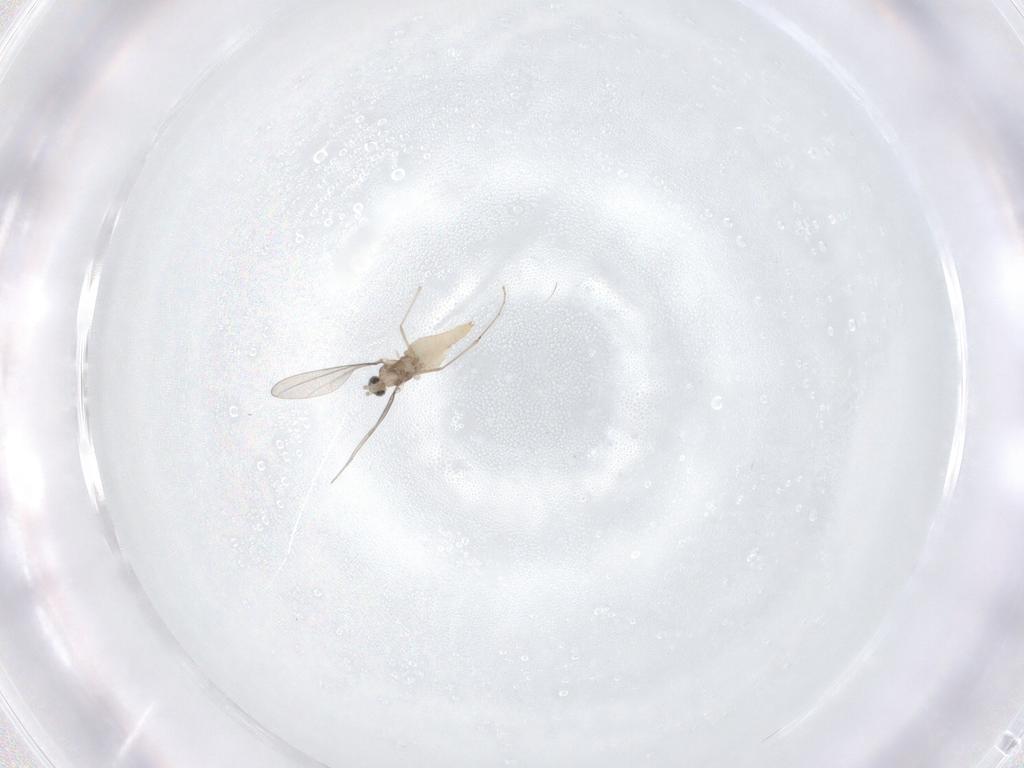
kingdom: Animalia
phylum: Arthropoda
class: Insecta
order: Diptera
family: Cecidomyiidae
